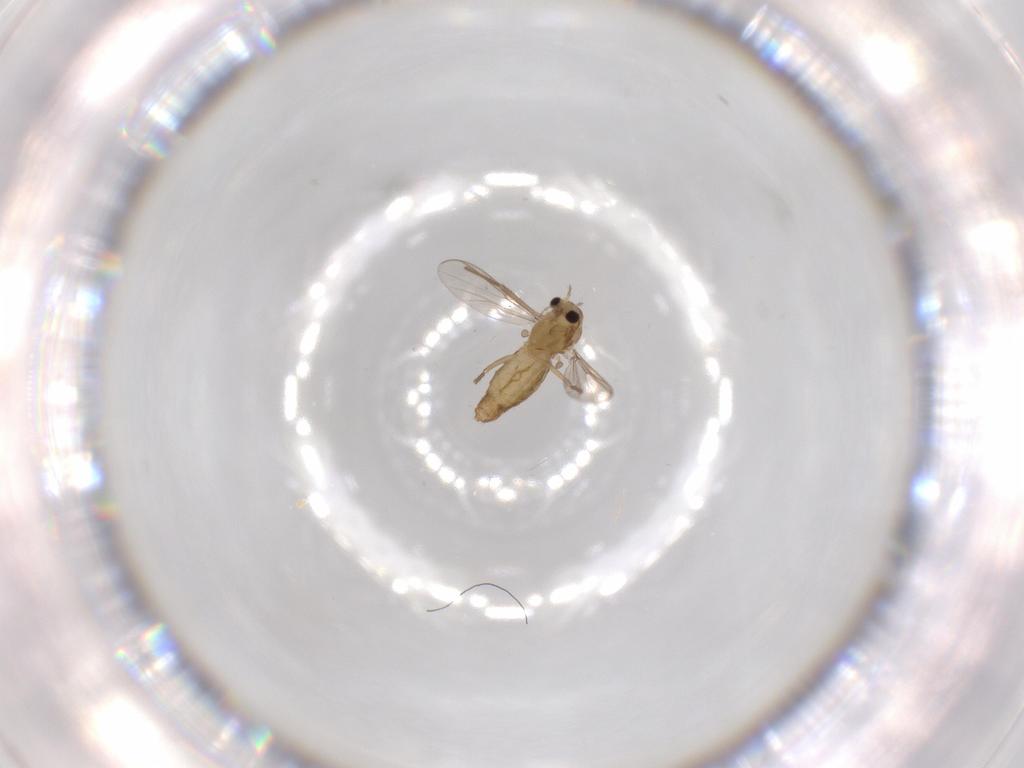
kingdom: Animalia
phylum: Arthropoda
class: Insecta
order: Diptera
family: Chironomidae
